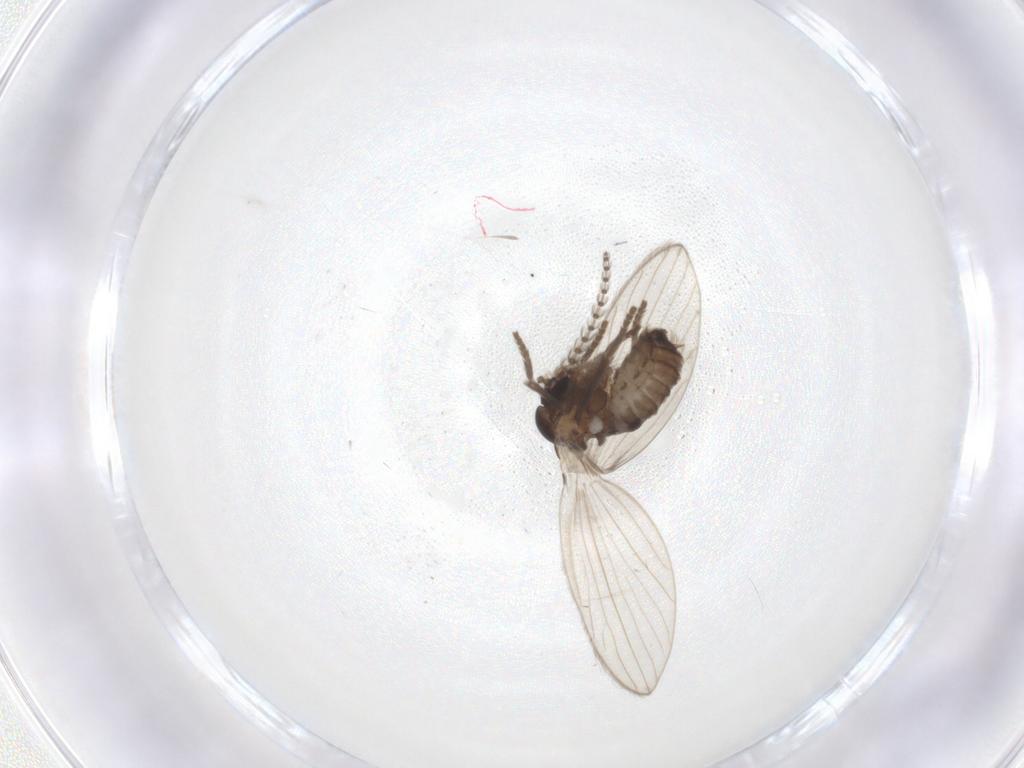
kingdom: Animalia
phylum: Arthropoda
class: Insecta
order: Diptera
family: Psychodidae
